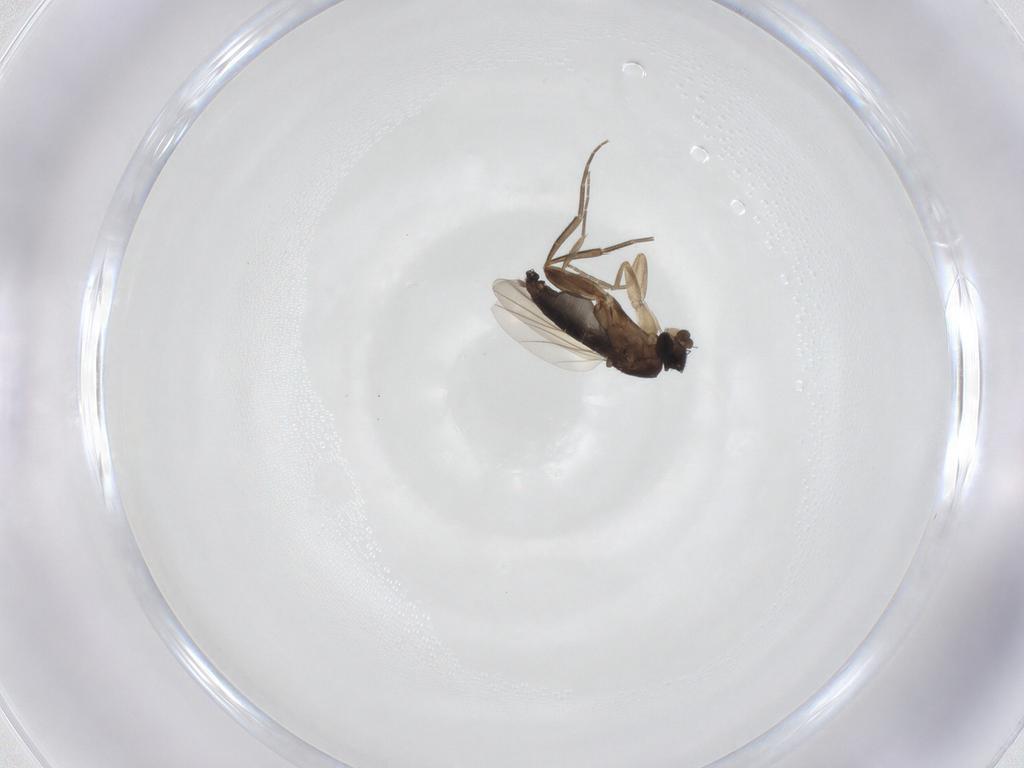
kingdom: Animalia
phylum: Arthropoda
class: Insecta
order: Diptera
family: Phoridae
